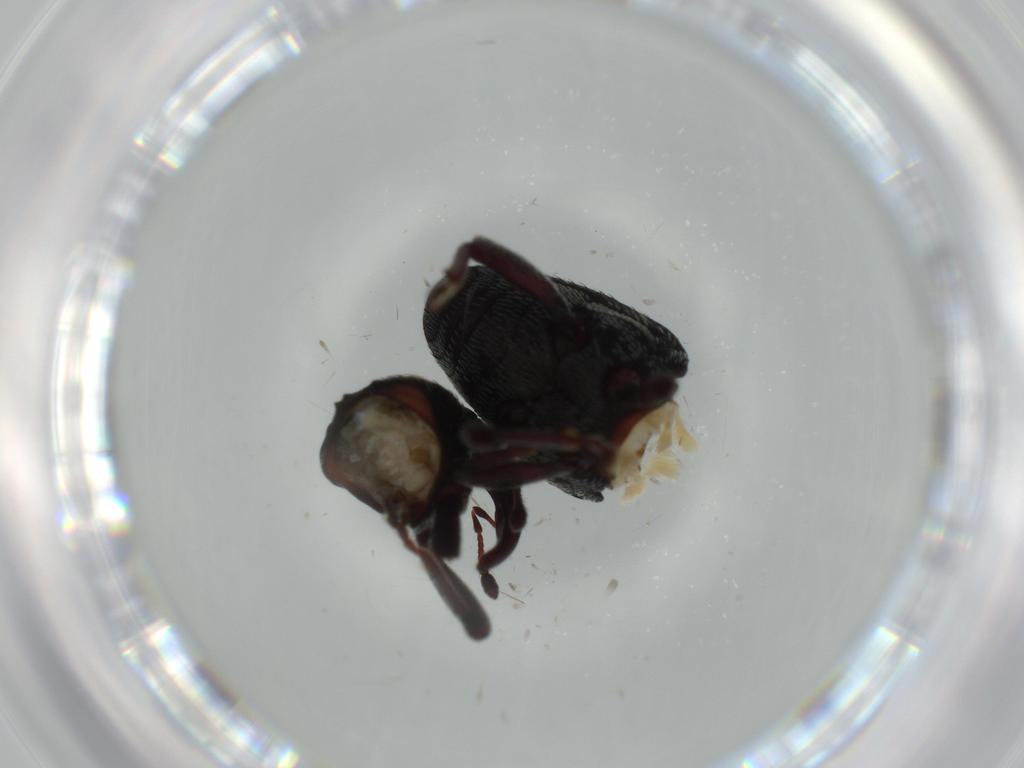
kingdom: Animalia
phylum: Arthropoda
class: Insecta
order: Coleoptera
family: Chrysomelidae
